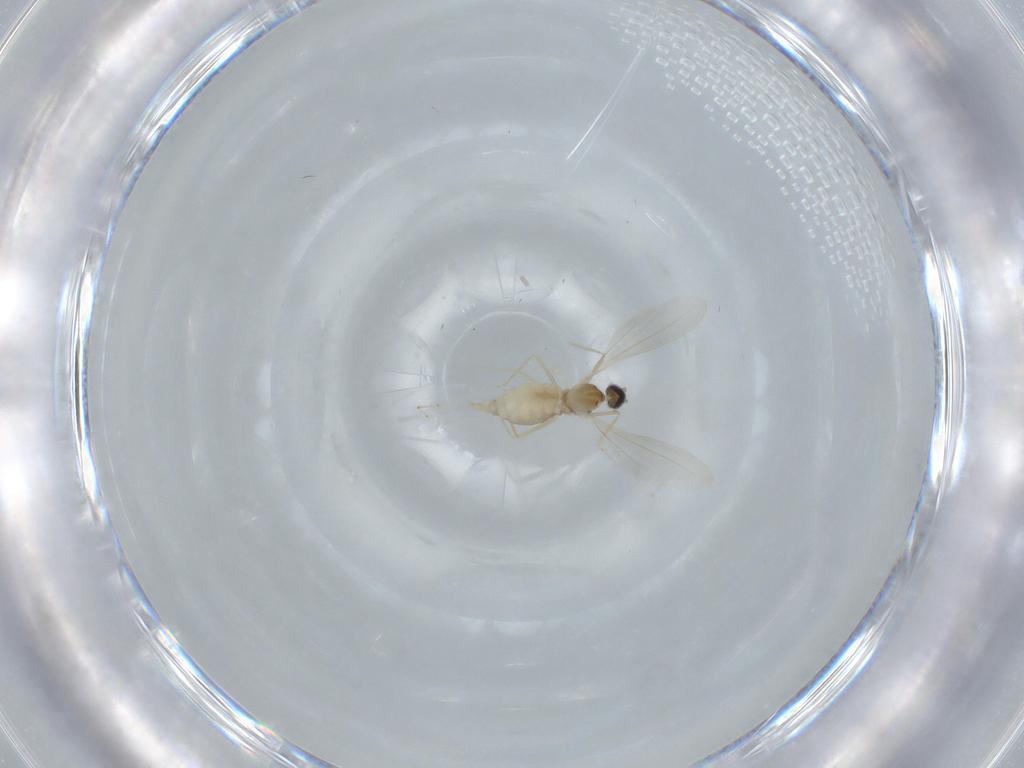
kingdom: Animalia
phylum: Arthropoda
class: Insecta
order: Diptera
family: Cecidomyiidae
